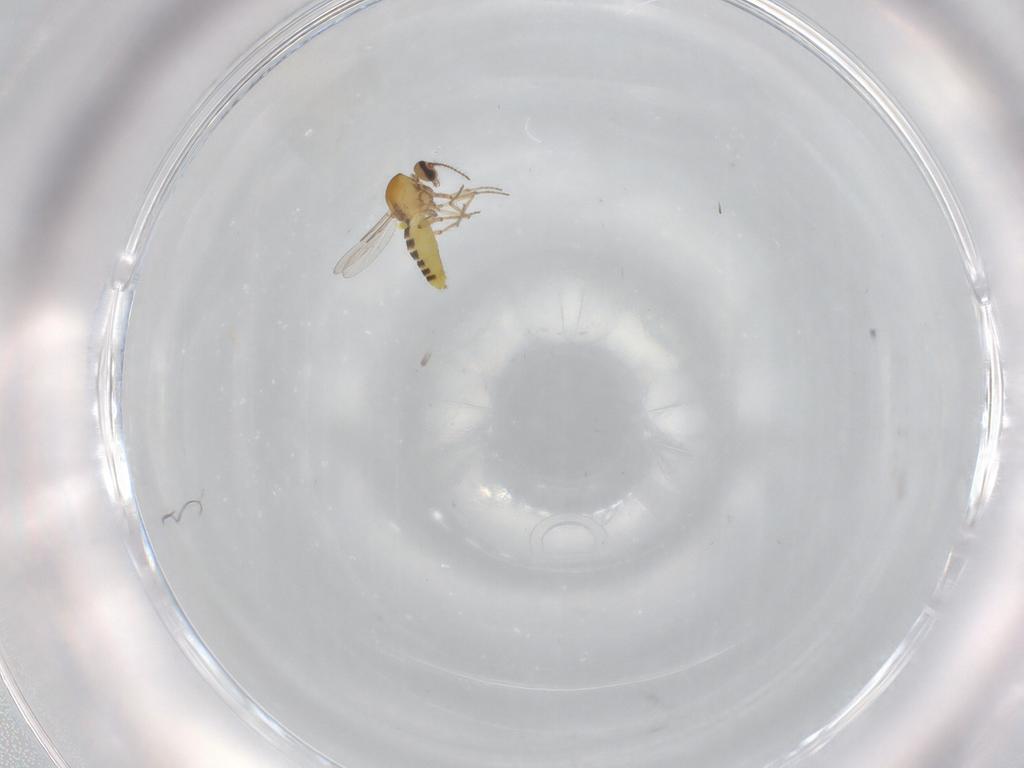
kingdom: Animalia
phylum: Arthropoda
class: Insecta
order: Diptera
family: Ceratopogonidae
